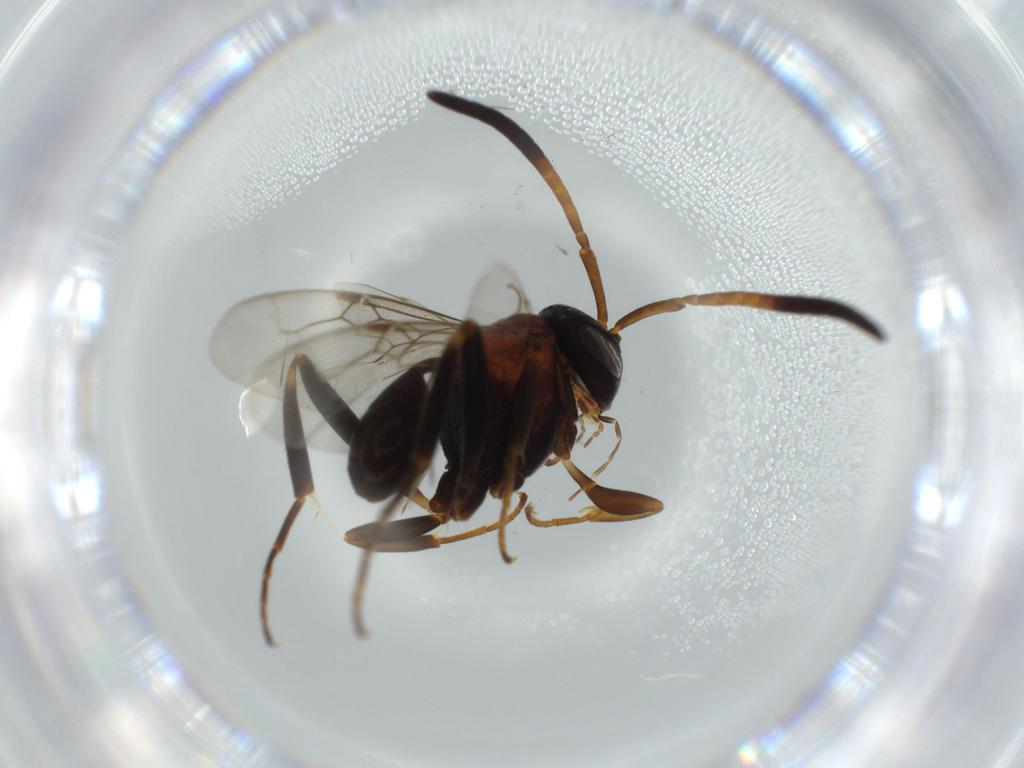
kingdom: Animalia
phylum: Arthropoda
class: Insecta
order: Hymenoptera
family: Evaniidae
